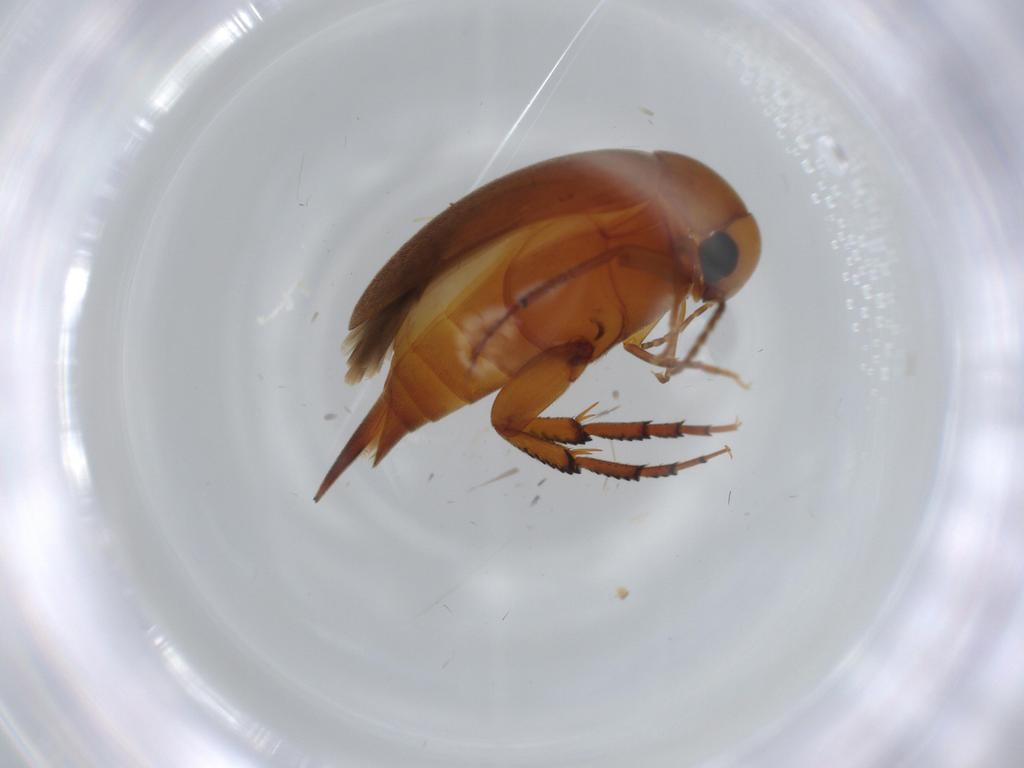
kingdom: Animalia
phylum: Arthropoda
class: Insecta
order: Coleoptera
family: Mordellidae
